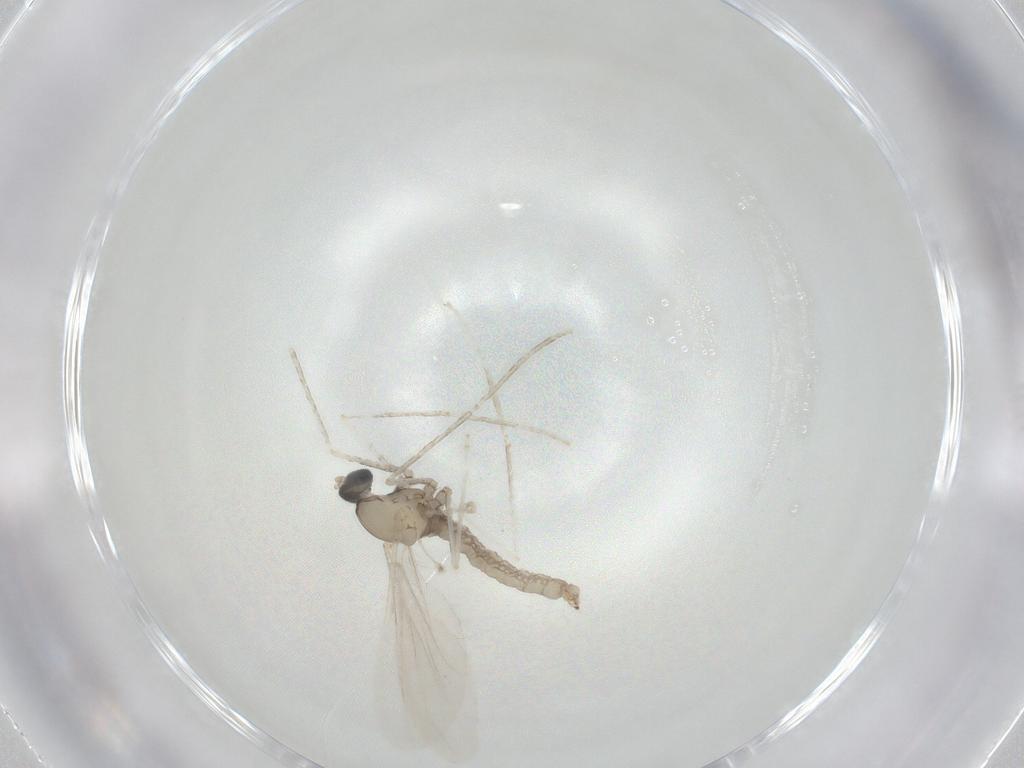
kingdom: Animalia
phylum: Arthropoda
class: Insecta
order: Diptera
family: Cecidomyiidae
